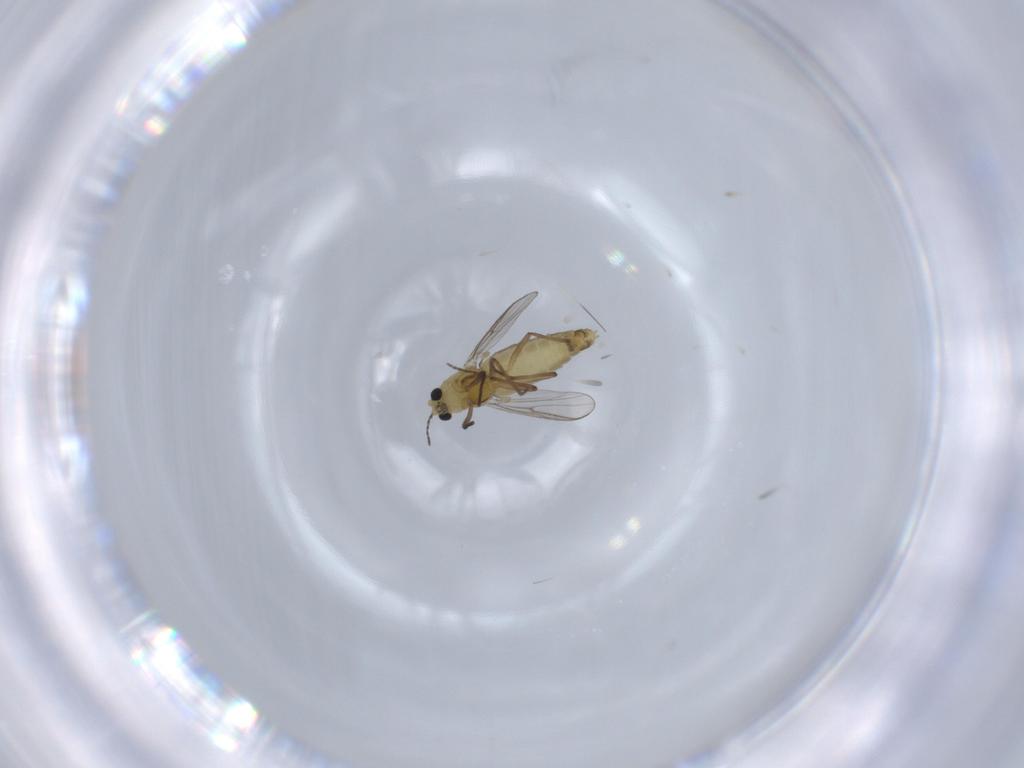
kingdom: Animalia
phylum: Arthropoda
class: Insecta
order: Diptera
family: Chironomidae
